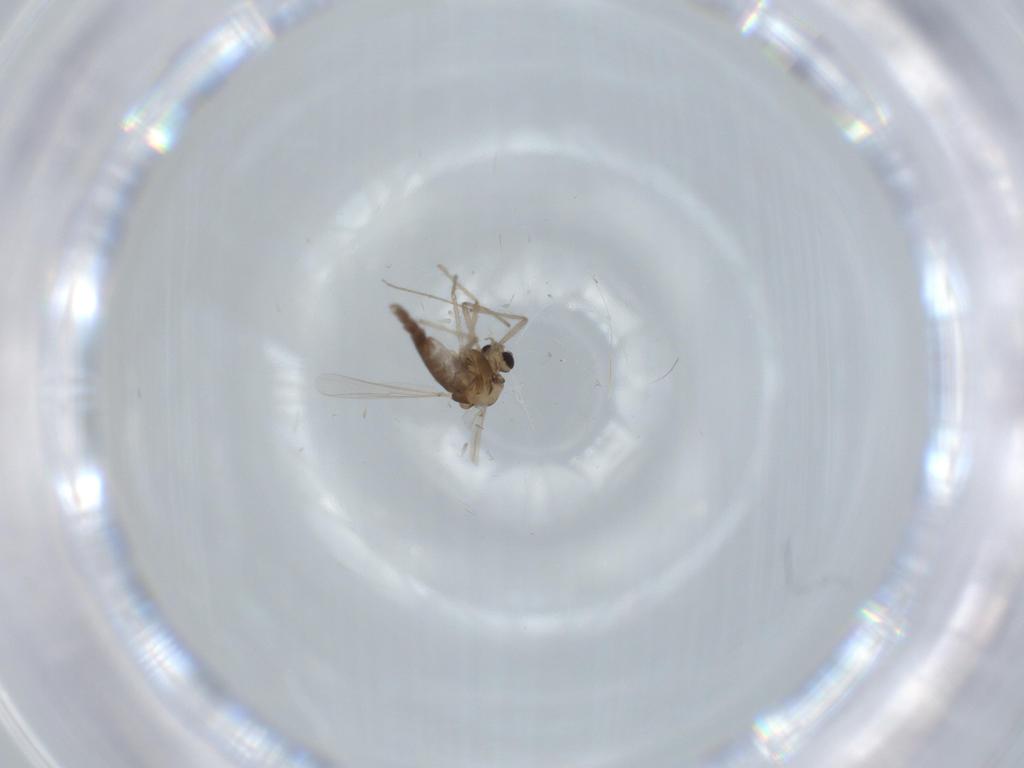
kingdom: Animalia
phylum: Arthropoda
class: Insecta
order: Diptera
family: Chironomidae
